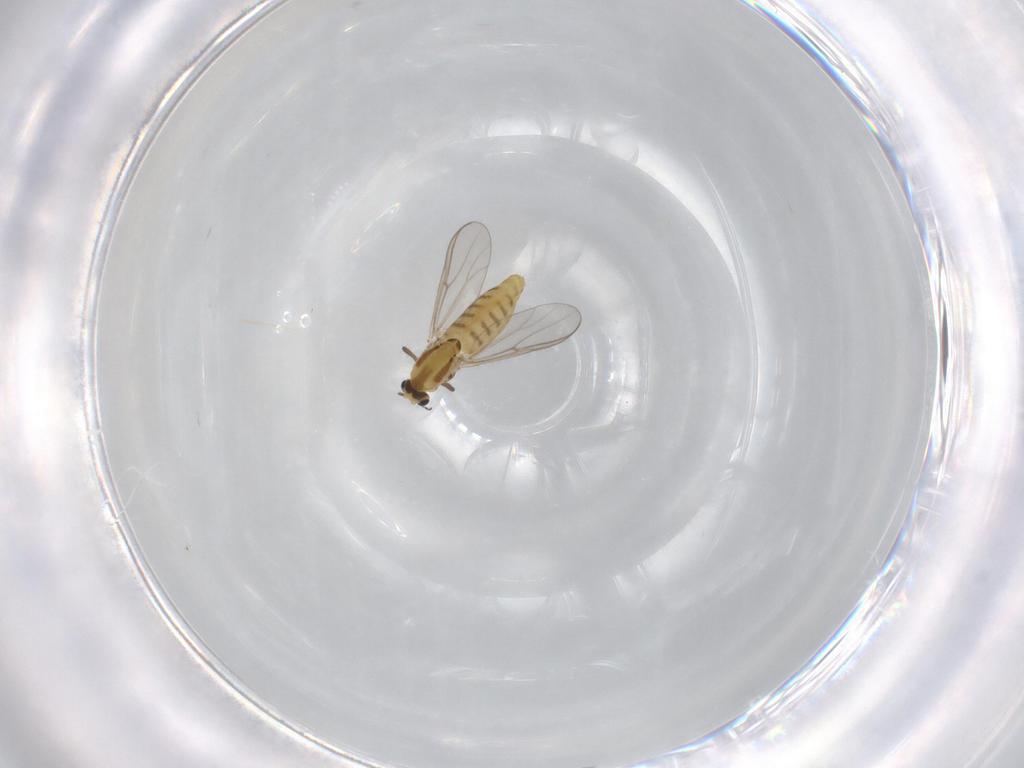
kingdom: Animalia
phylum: Arthropoda
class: Insecta
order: Diptera
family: Chironomidae
